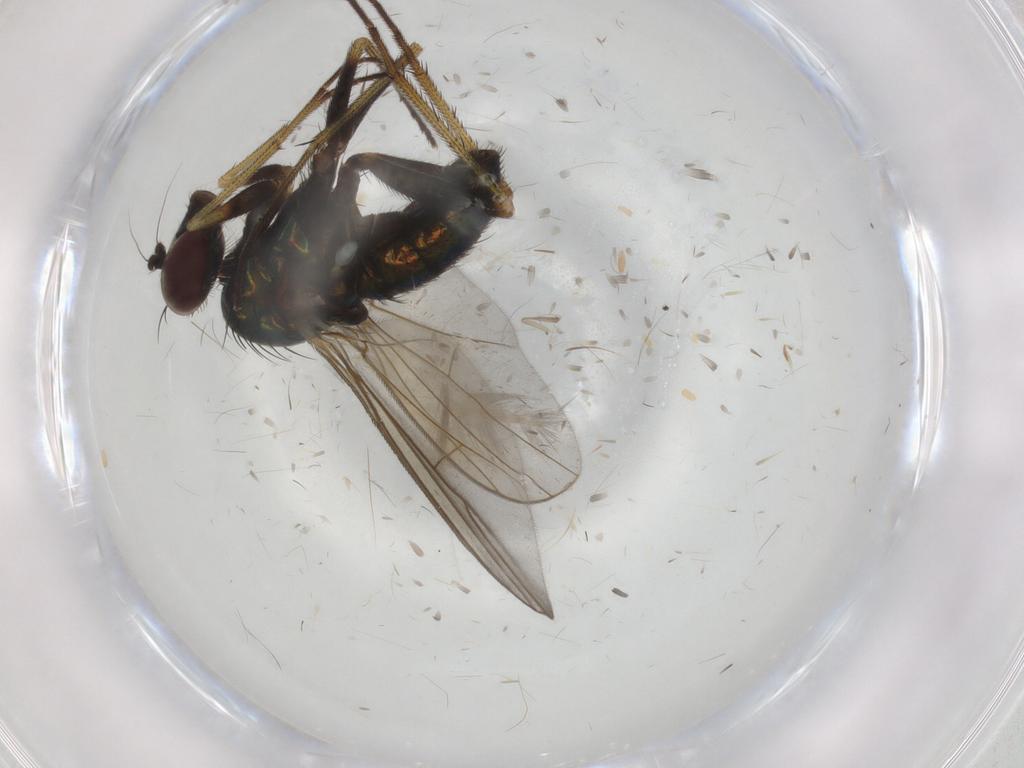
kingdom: Animalia
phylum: Arthropoda
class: Insecta
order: Diptera
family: Dolichopodidae
